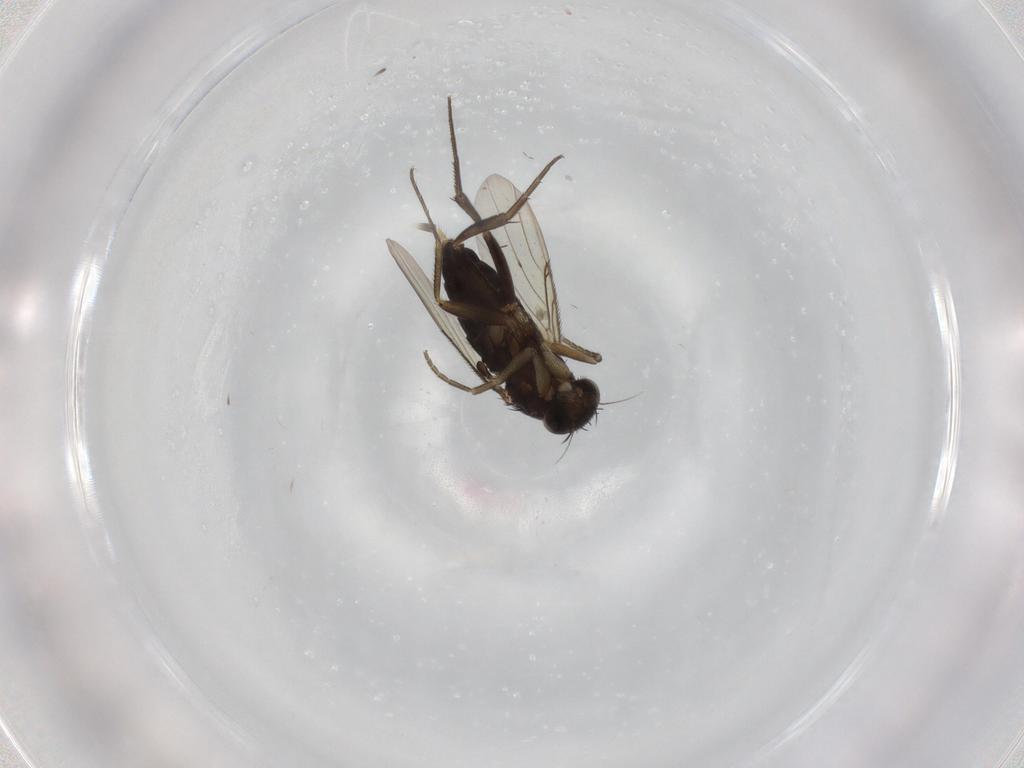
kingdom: Animalia
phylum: Arthropoda
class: Insecta
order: Diptera
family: Phoridae
